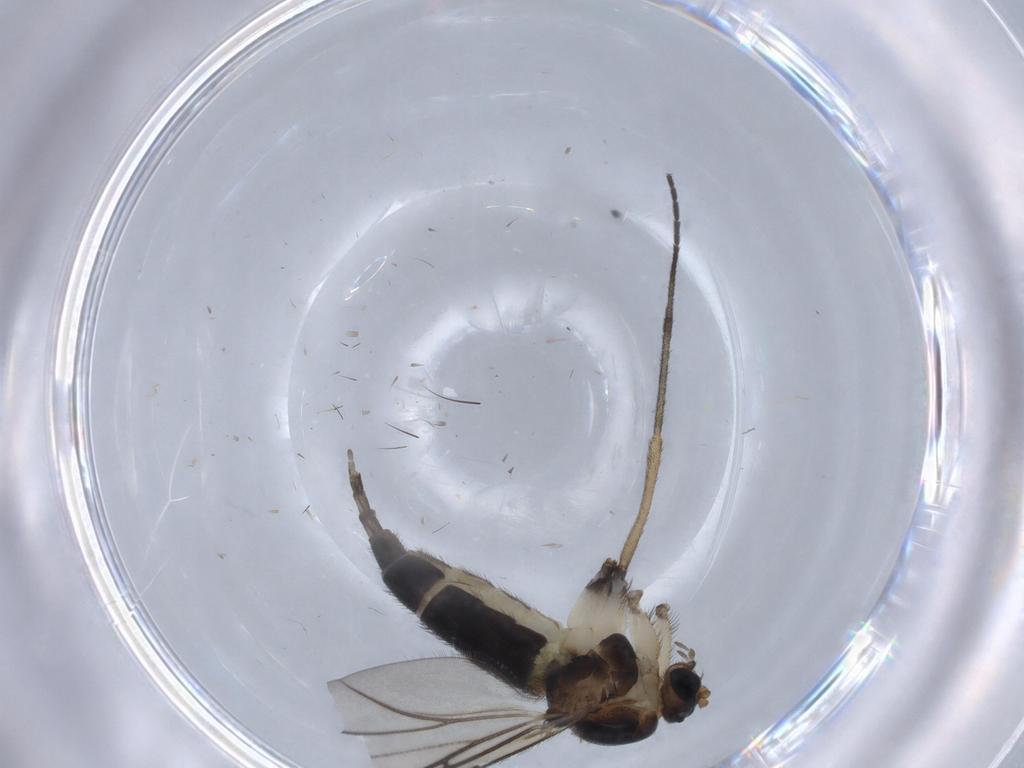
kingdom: Animalia
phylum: Arthropoda
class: Insecta
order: Diptera
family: Sciaridae
